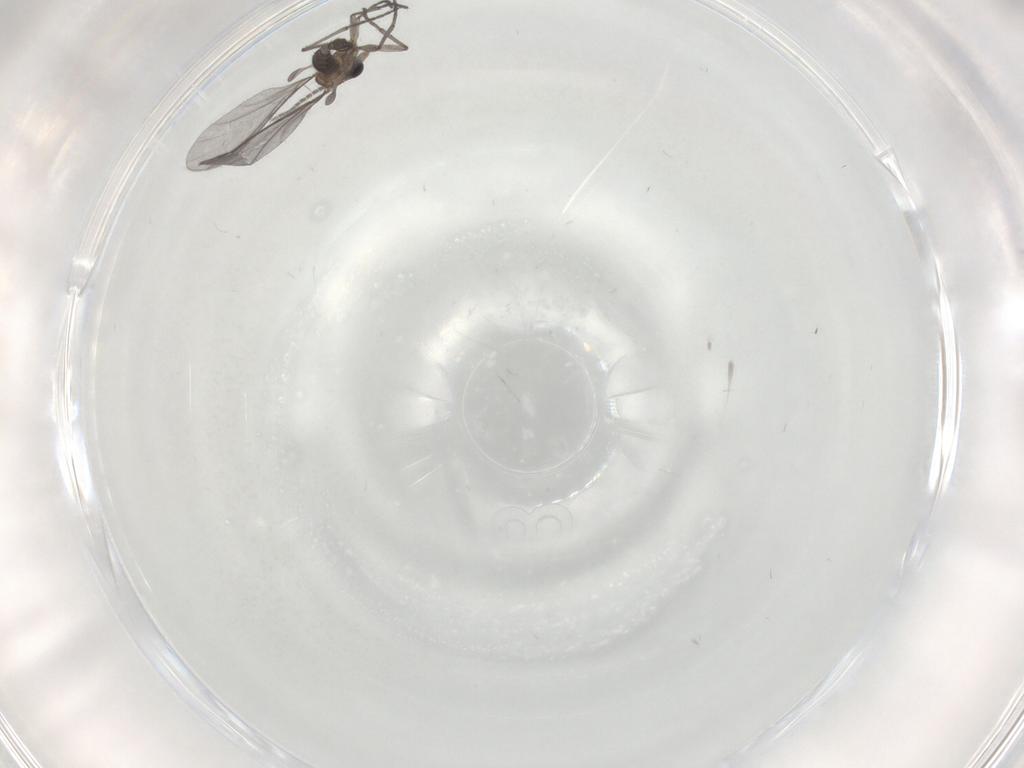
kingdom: Animalia
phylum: Arthropoda
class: Insecta
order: Diptera
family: Sciaridae
